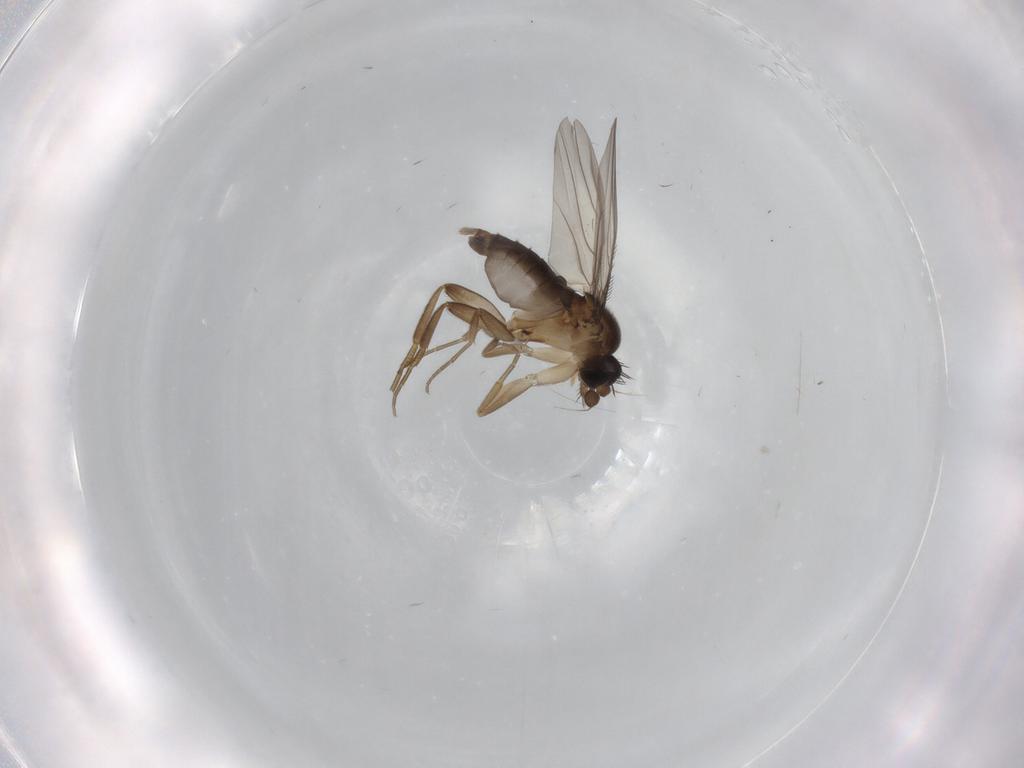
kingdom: Animalia
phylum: Arthropoda
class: Insecta
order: Diptera
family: Phoridae
